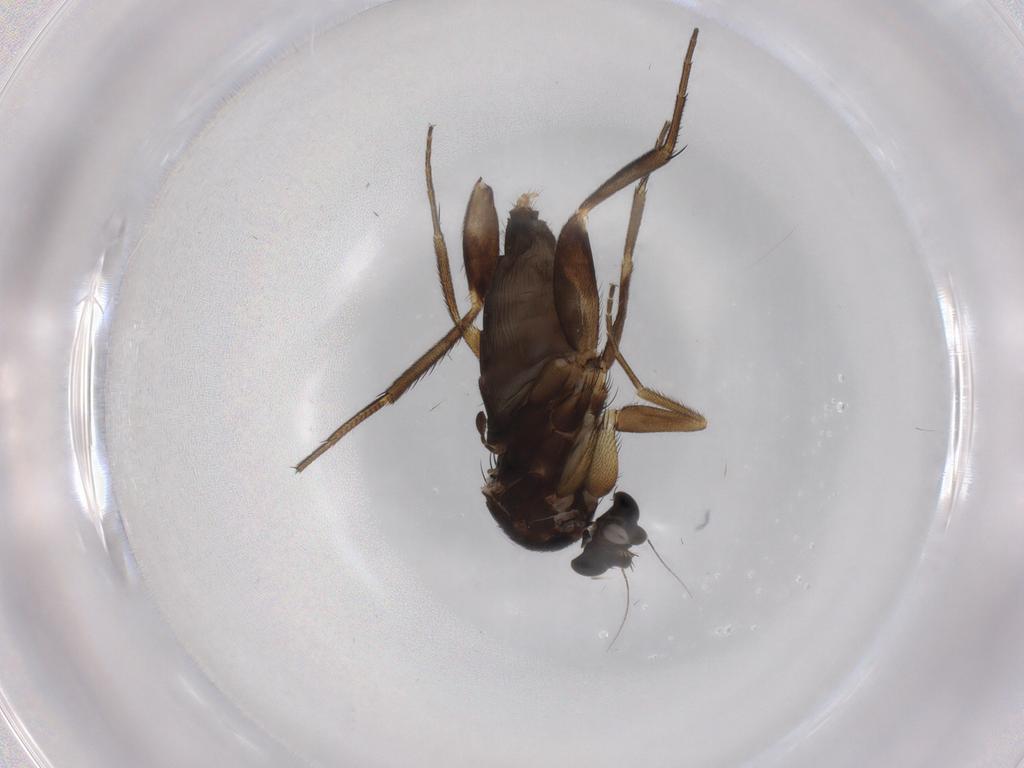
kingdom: Animalia
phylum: Arthropoda
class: Insecta
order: Diptera
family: Phoridae
